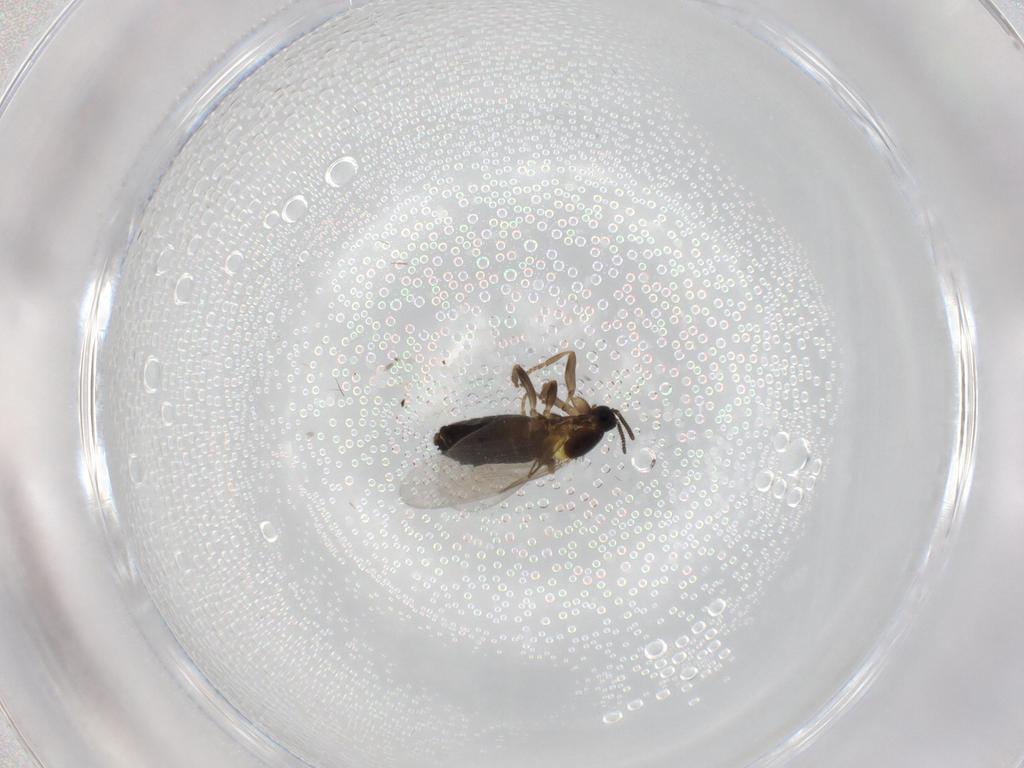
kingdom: Animalia
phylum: Arthropoda
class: Insecta
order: Diptera
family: Scatopsidae
